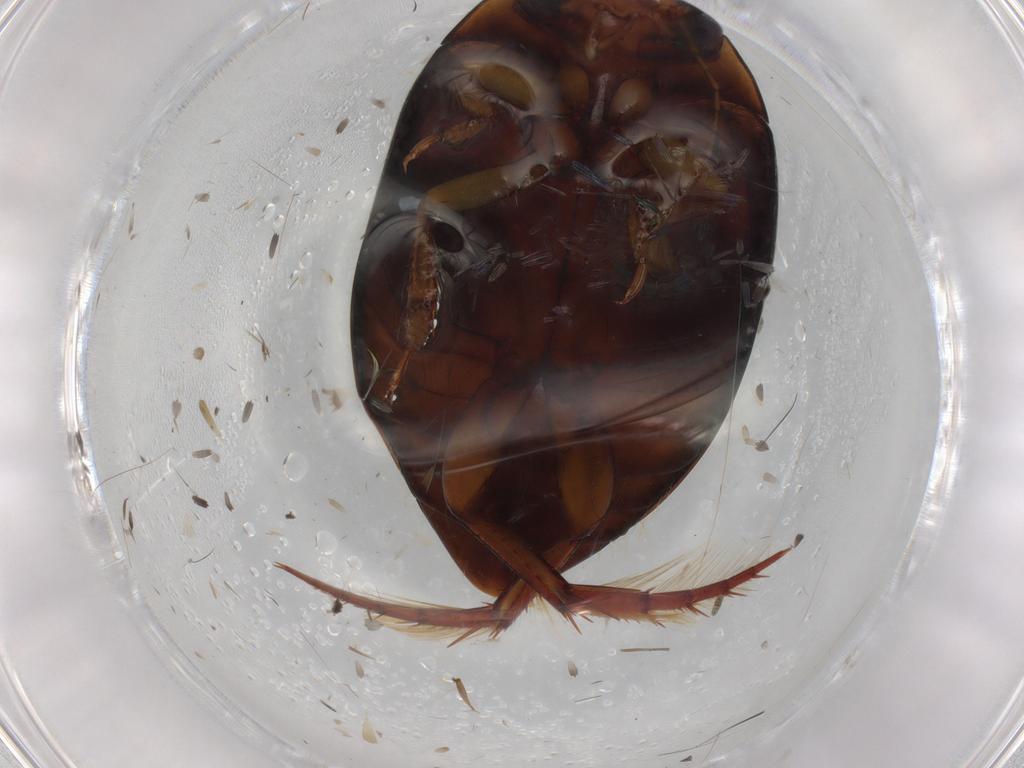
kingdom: Animalia
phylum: Arthropoda
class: Insecta
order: Coleoptera
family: Dytiscidae
